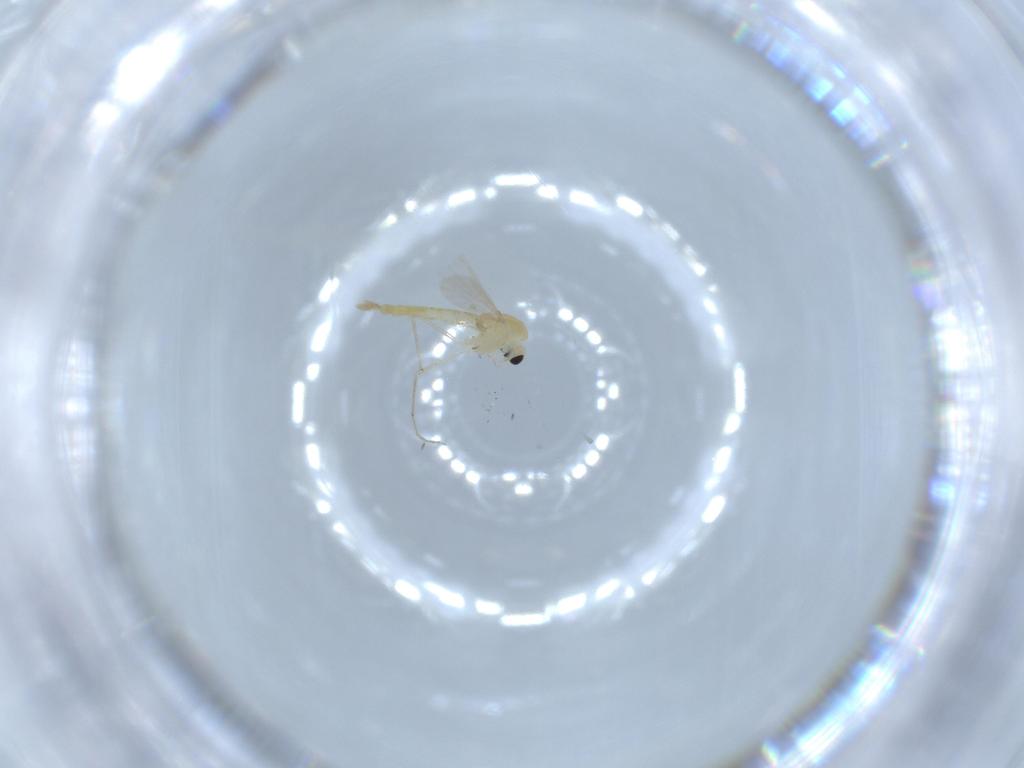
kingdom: Animalia
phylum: Arthropoda
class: Insecta
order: Diptera
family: Chironomidae
